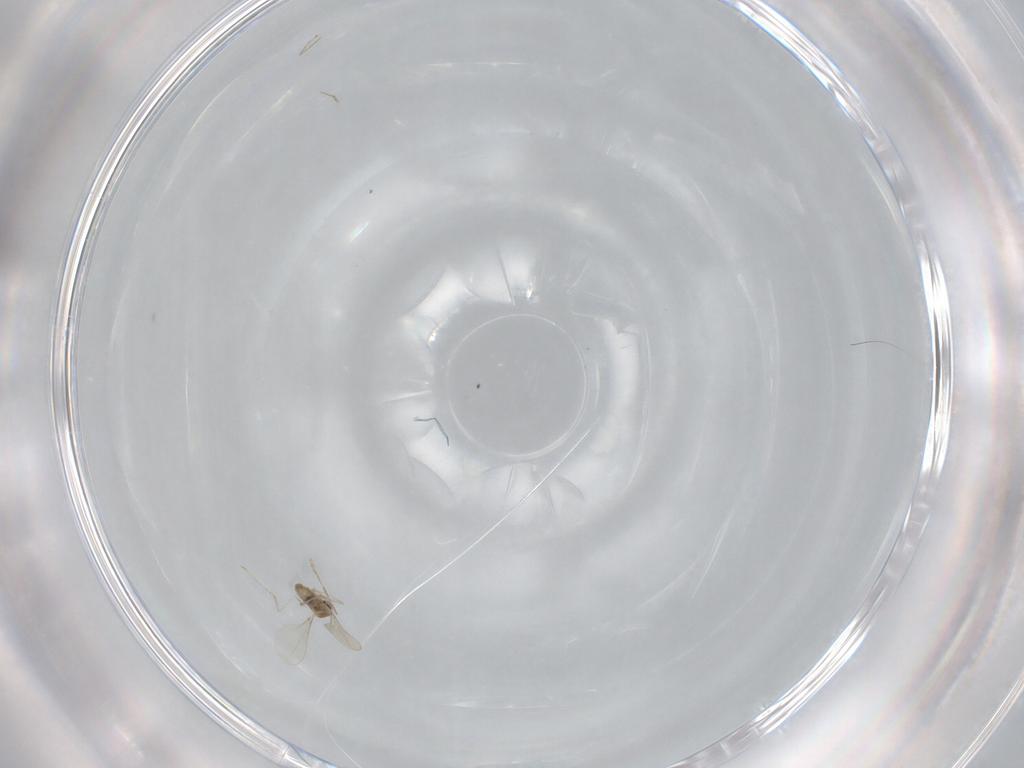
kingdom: Animalia
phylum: Arthropoda
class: Insecta
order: Diptera
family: Cecidomyiidae
